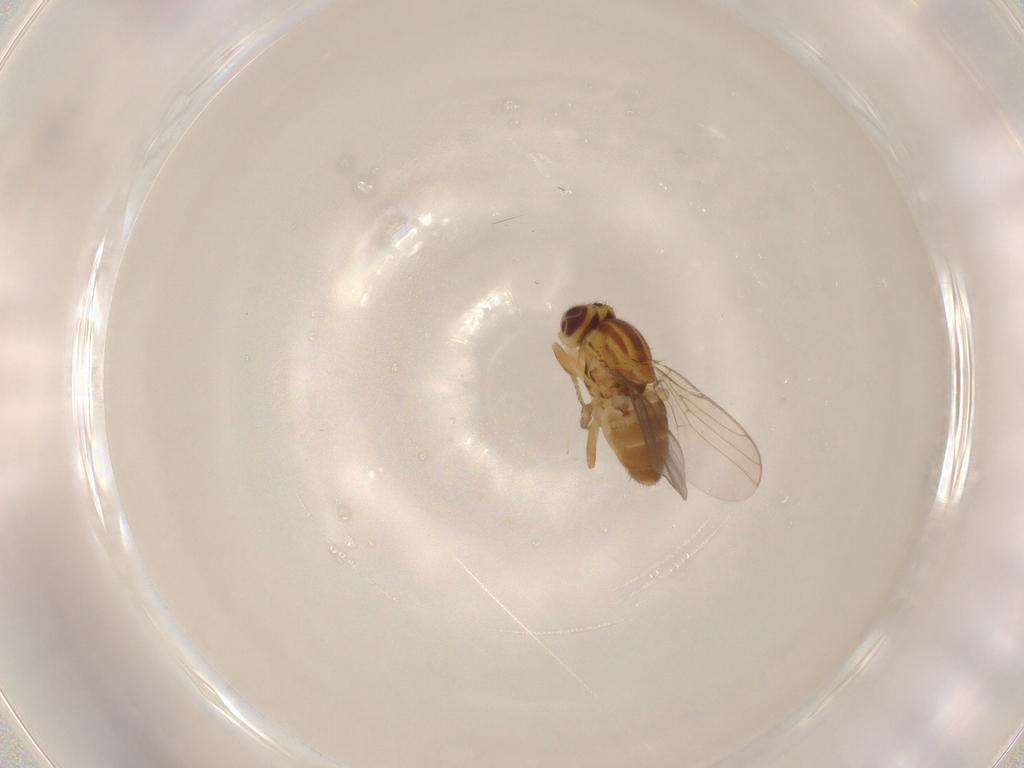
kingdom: Animalia
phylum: Arthropoda
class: Insecta
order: Diptera
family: Chloropidae
